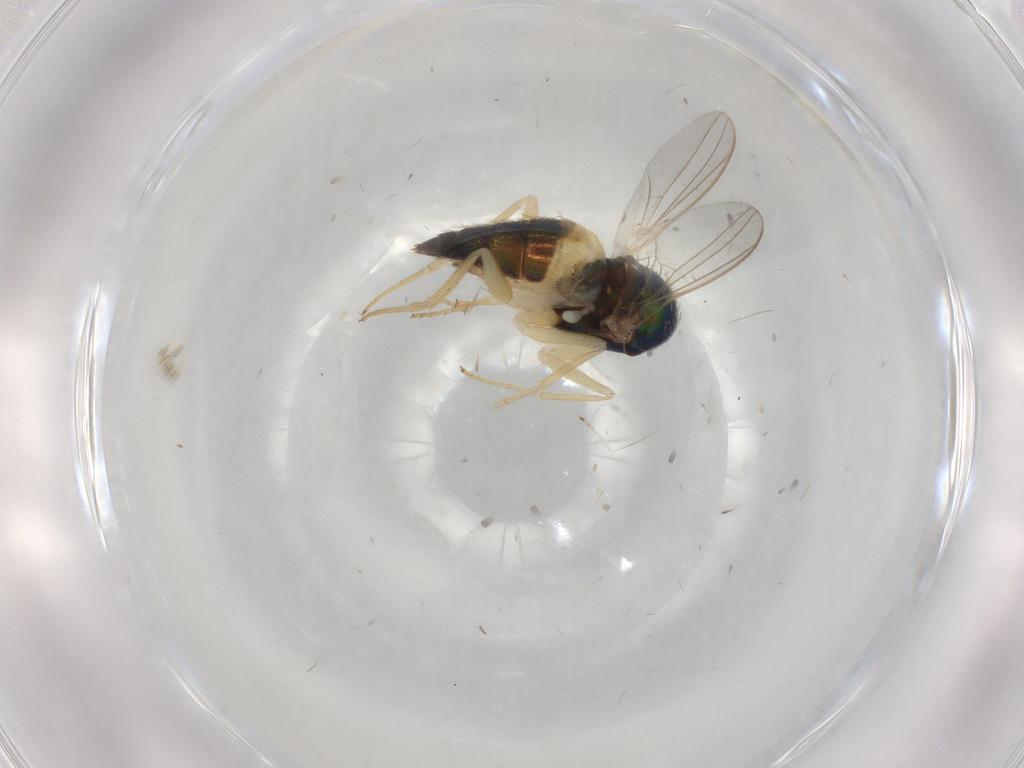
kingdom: Animalia
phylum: Arthropoda
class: Insecta
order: Diptera
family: Dolichopodidae
